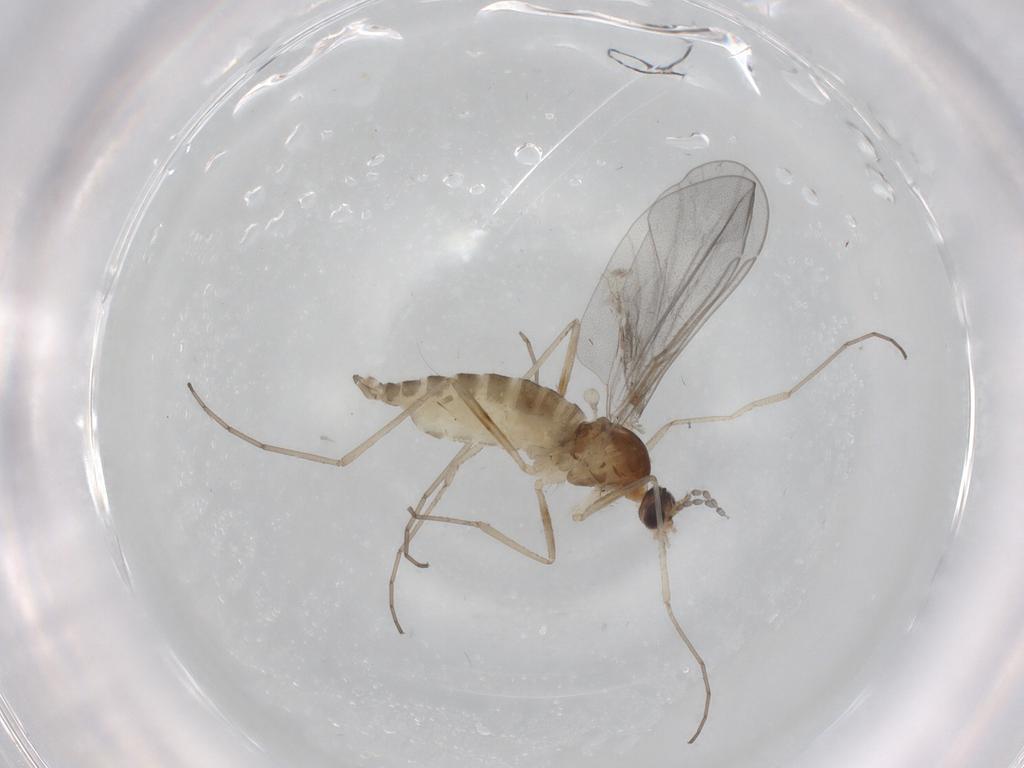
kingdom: Animalia
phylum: Arthropoda
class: Insecta
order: Diptera
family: Cecidomyiidae
